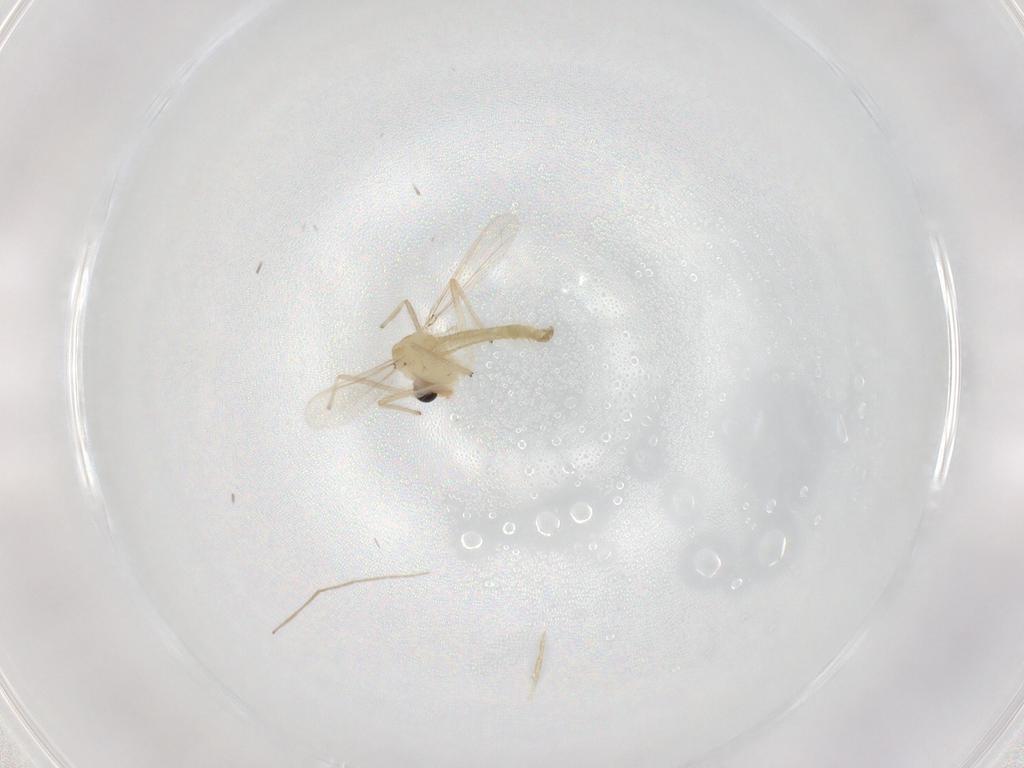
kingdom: Animalia
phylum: Arthropoda
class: Insecta
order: Diptera
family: Chironomidae
